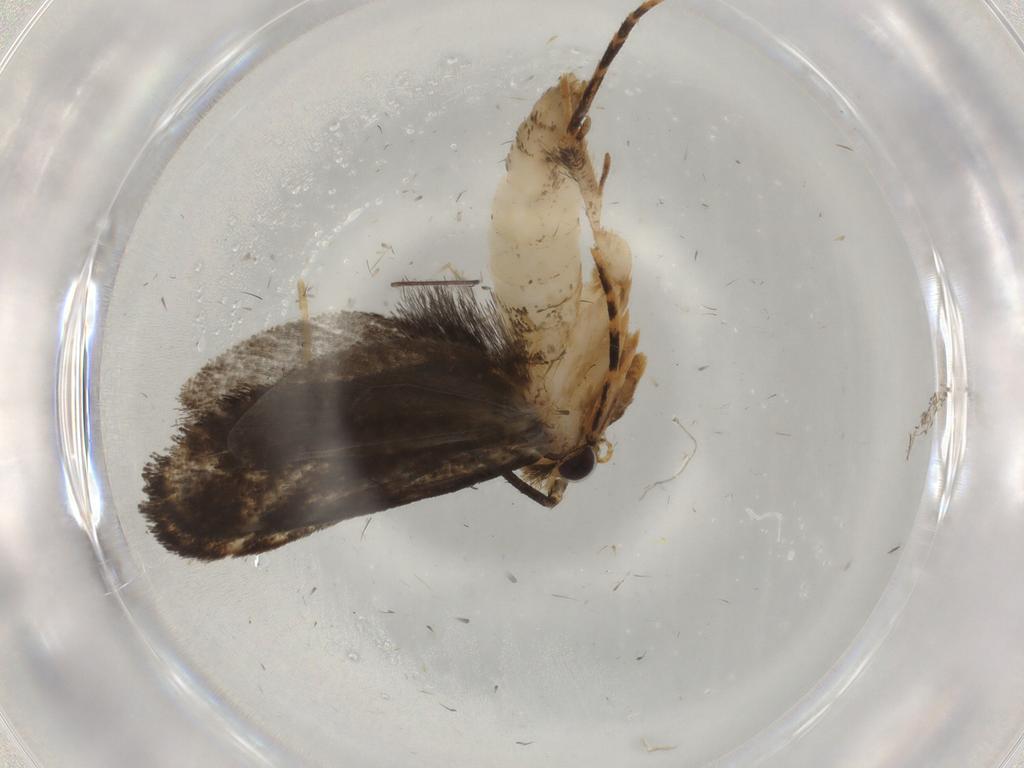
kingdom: Animalia
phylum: Arthropoda
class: Insecta
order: Lepidoptera
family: Tineidae
